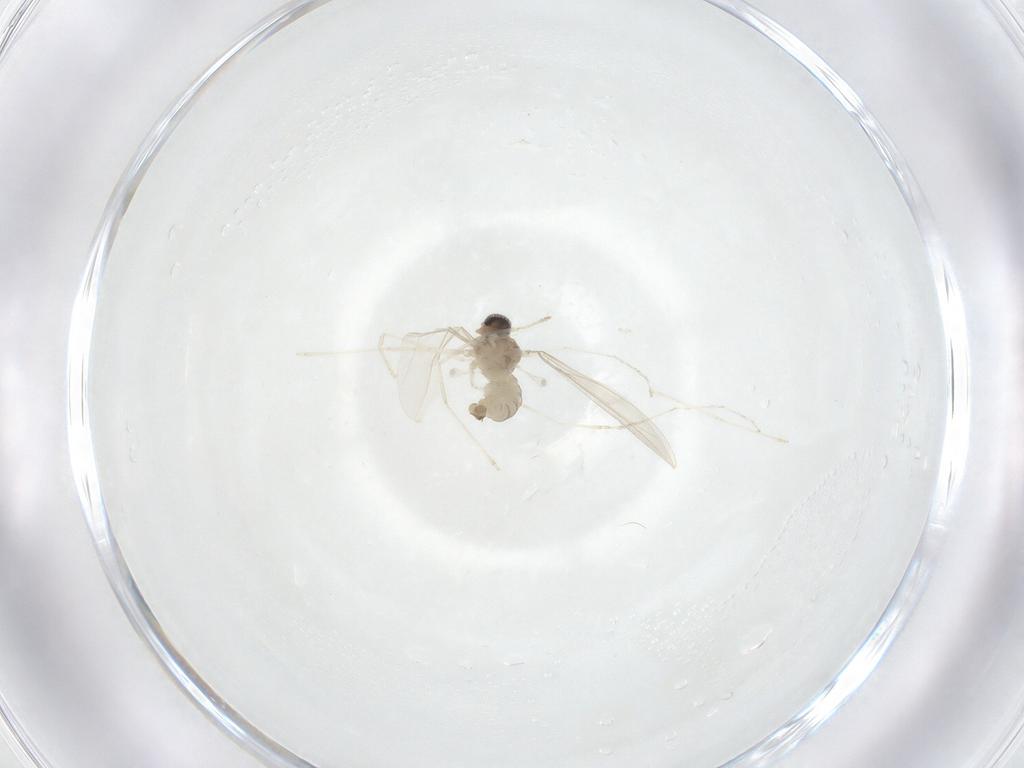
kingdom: Animalia
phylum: Arthropoda
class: Insecta
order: Diptera
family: Cecidomyiidae
